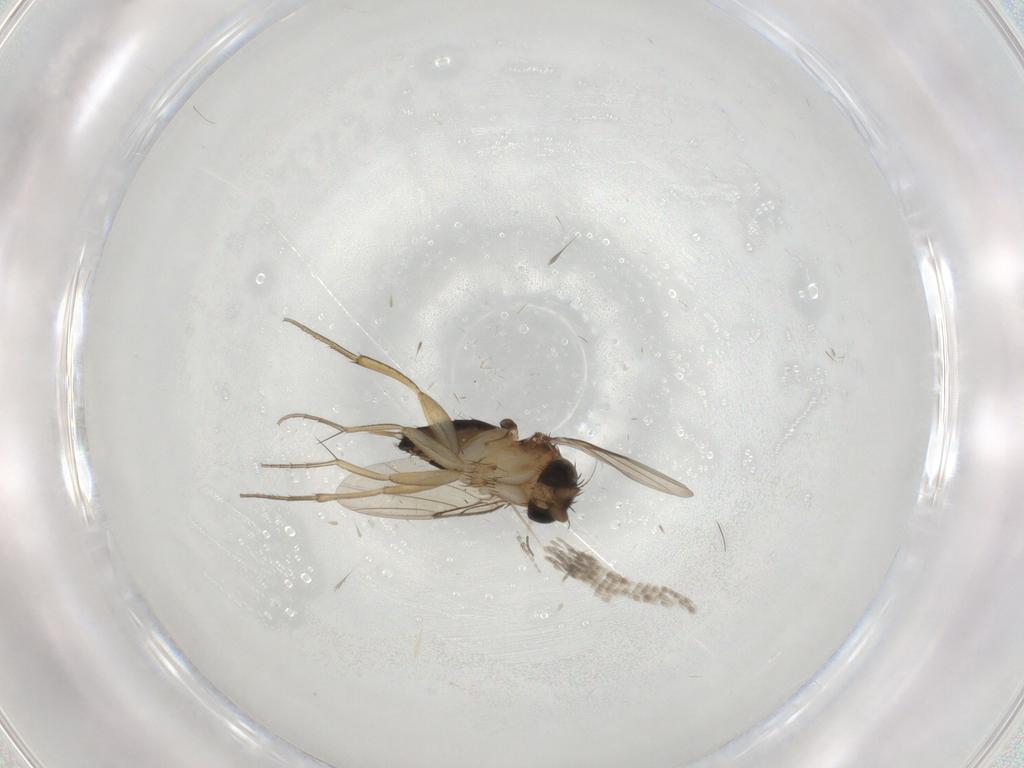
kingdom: Animalia
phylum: Arthropoda
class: Insecta
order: Diptera
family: Phoridae
